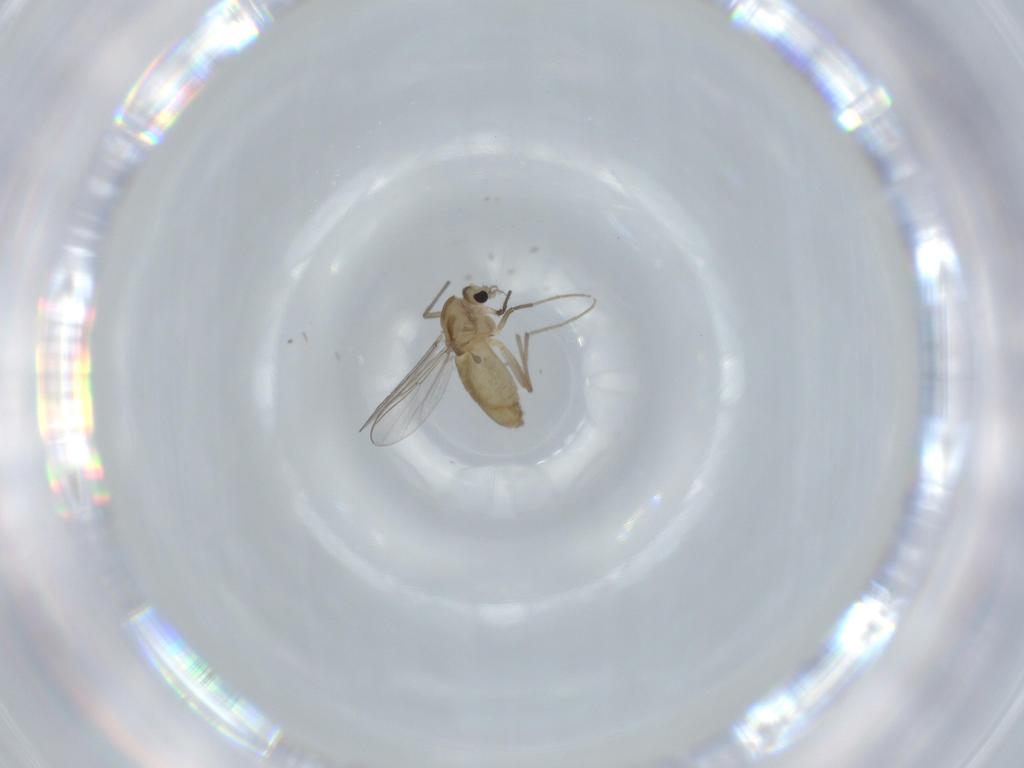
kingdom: Animalia
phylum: Arthropoda
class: Insecta
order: Diptera
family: Chironomidae
